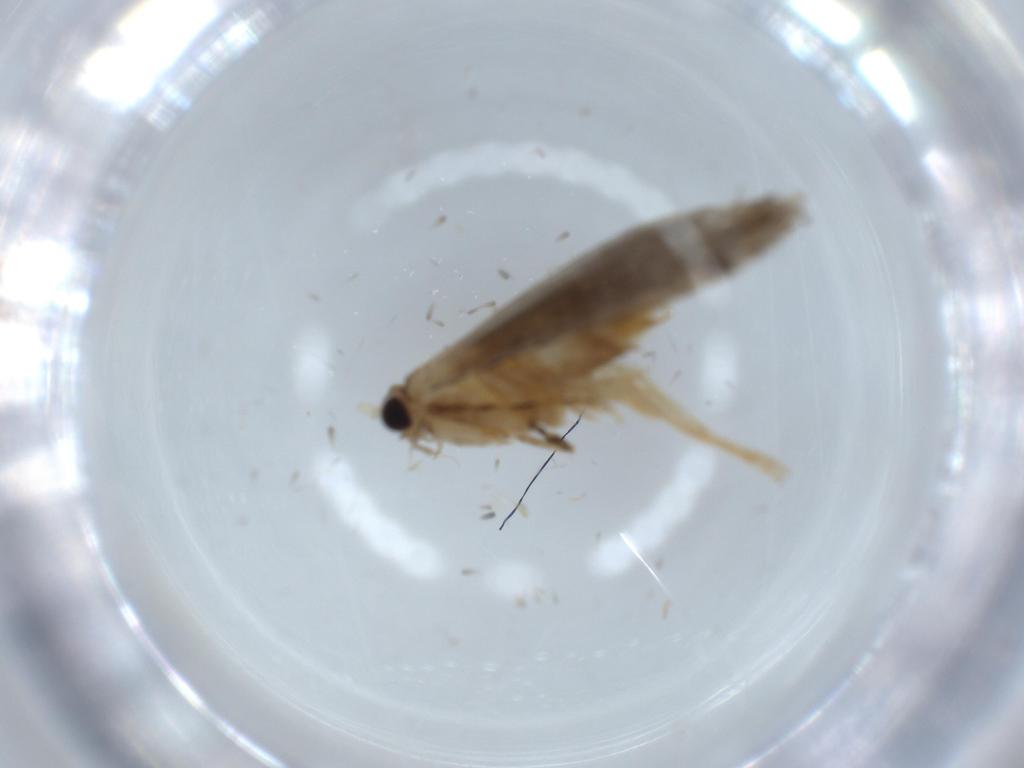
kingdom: Animalia
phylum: Arthropoda
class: Insecta
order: Lepidoptera
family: Tineidae
